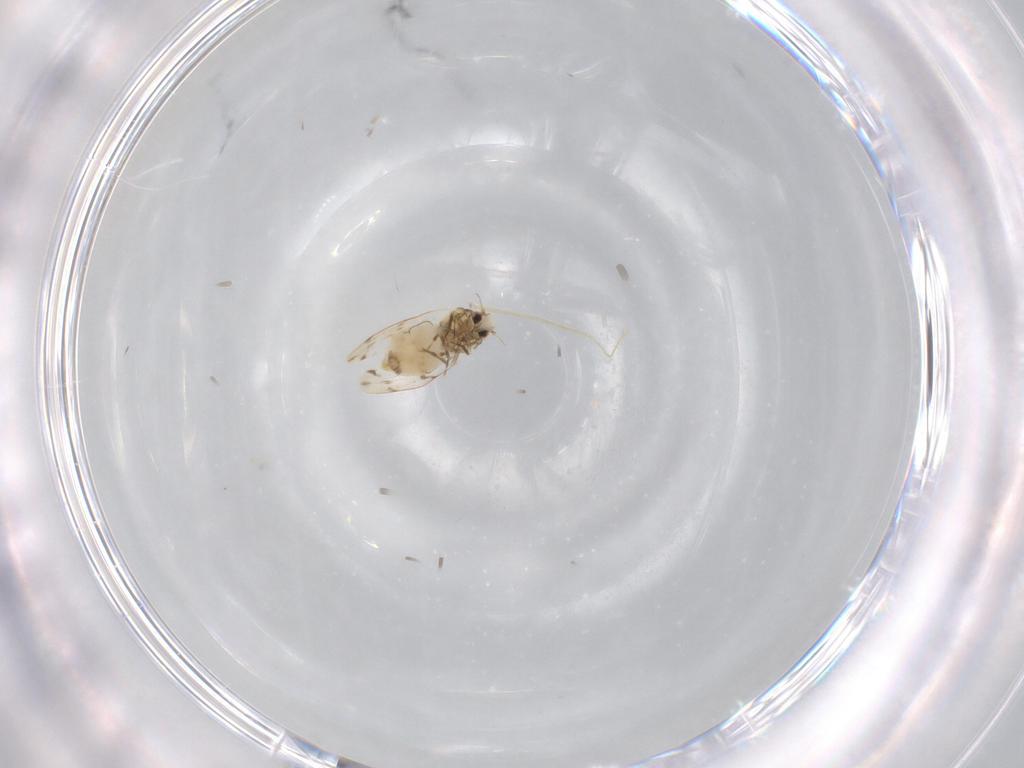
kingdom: Animalia
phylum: Arthropoda
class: Insecta
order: Hemiptera
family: Aleyrodidae
